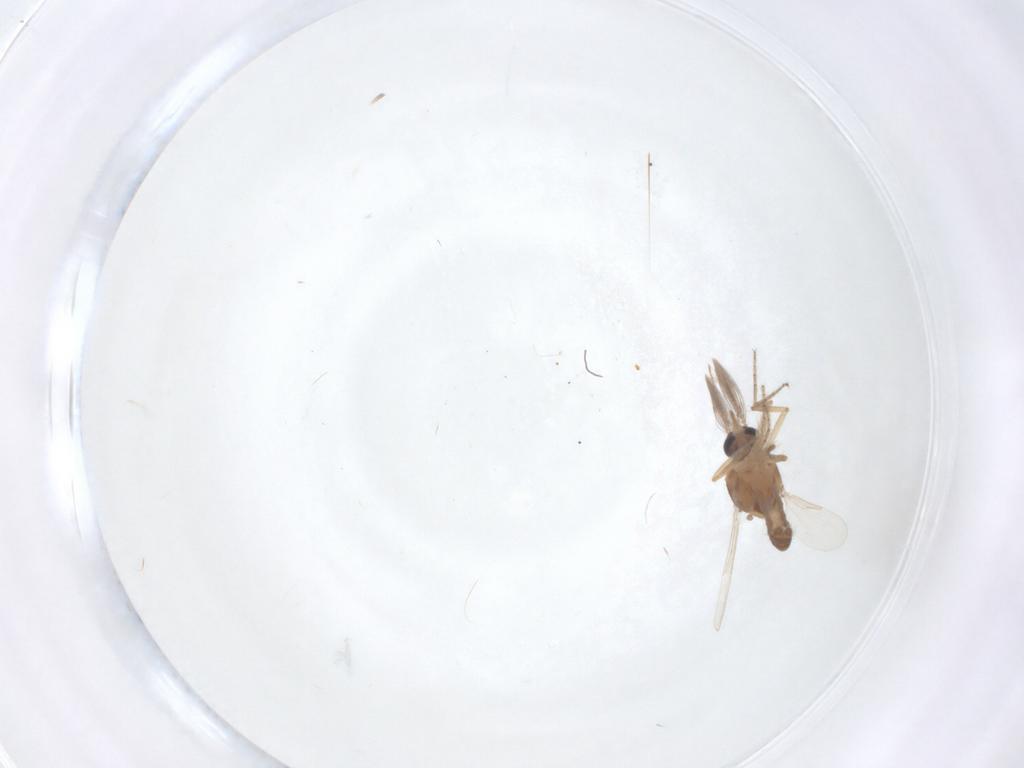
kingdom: Animalia
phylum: Arthropoda
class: Insecta
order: Diptera
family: Ceratopogonidae
